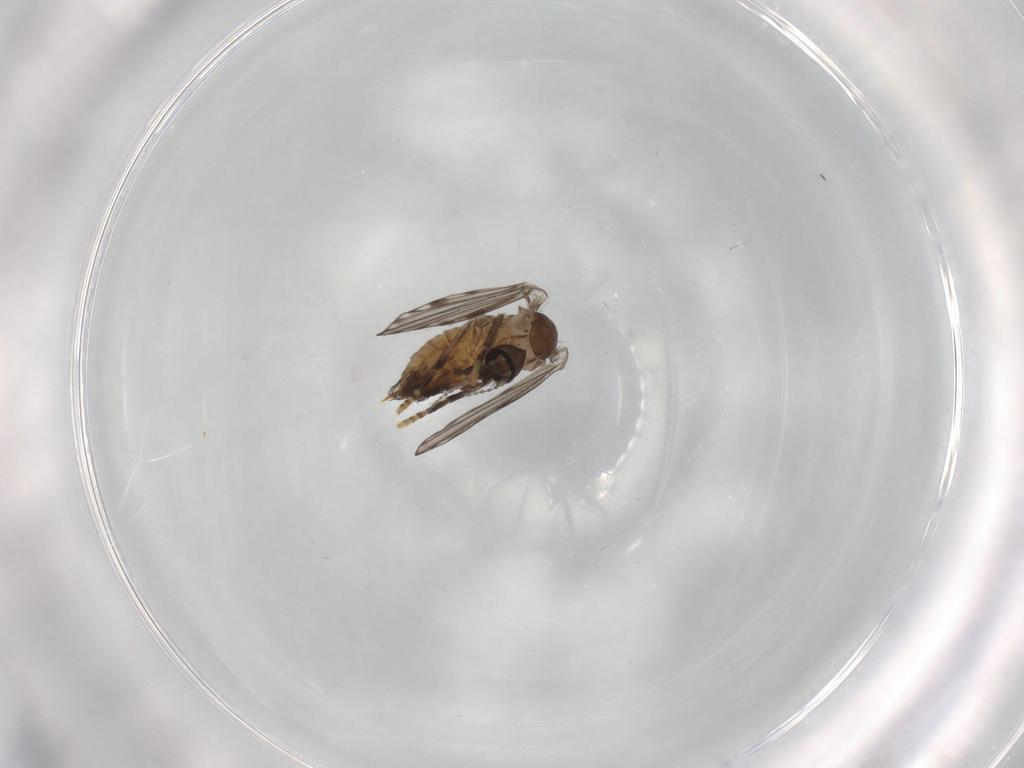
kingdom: Animalia
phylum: Arthropoda
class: Insecta
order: Diptera
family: Psychodidae
